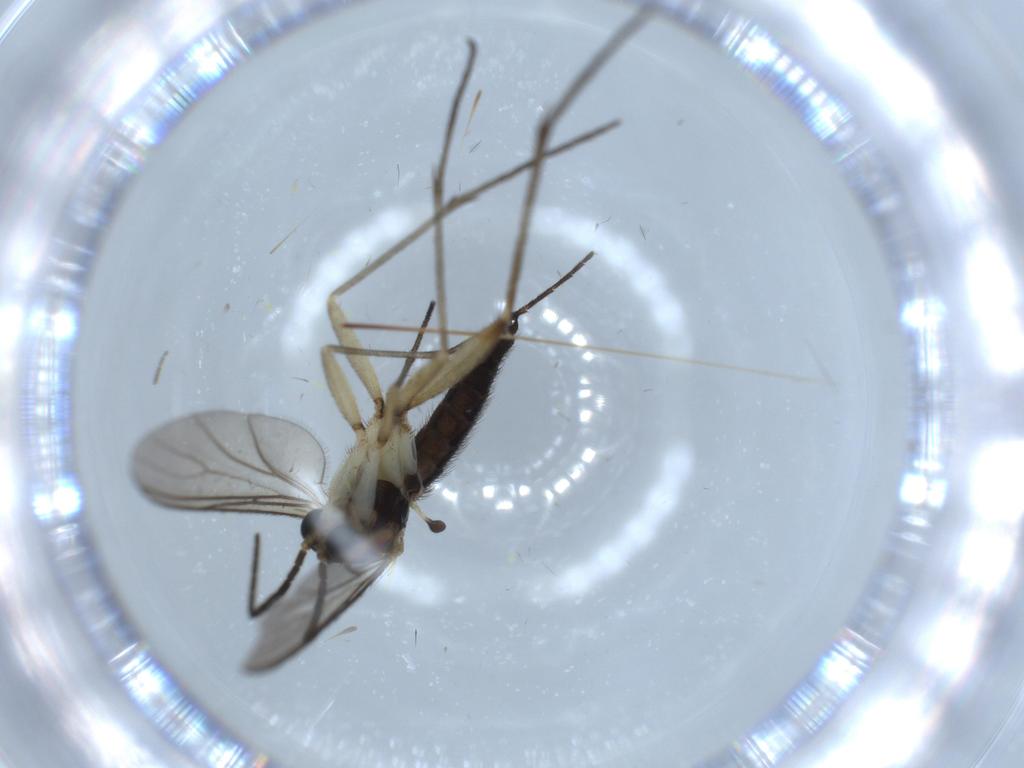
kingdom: Animalia
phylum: Arthropoda
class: Insecta
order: Diptera
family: Sciaridae
